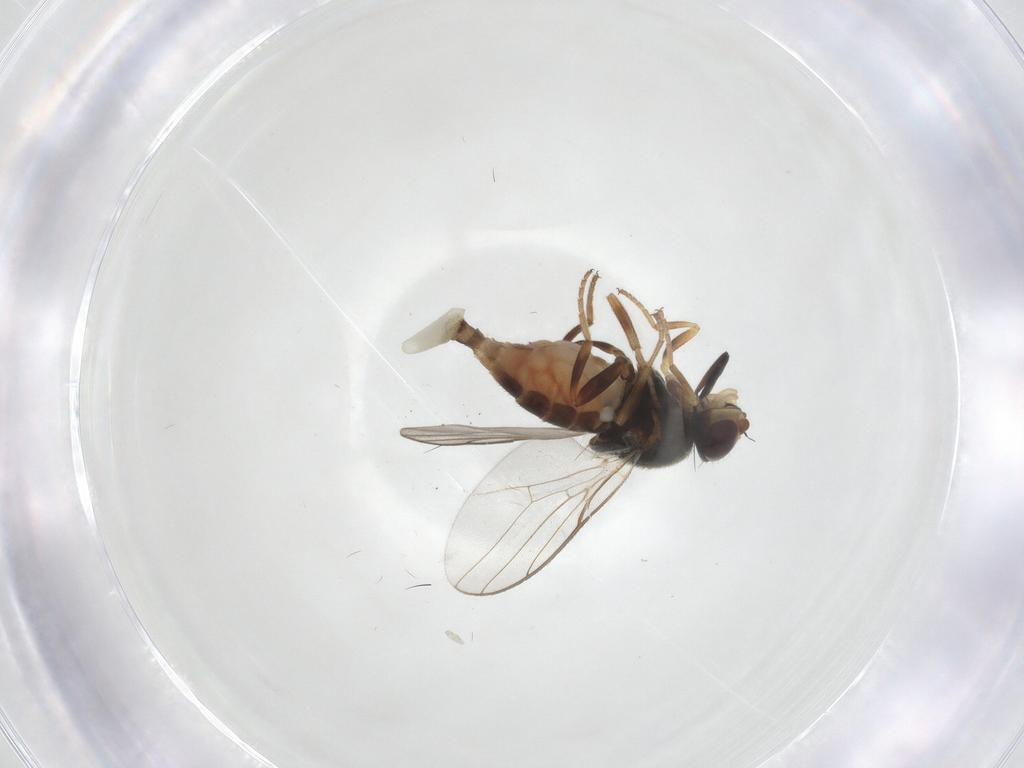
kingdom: Animalia
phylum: Arthropoda
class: Insecta
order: Diptera
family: Chloropidae
